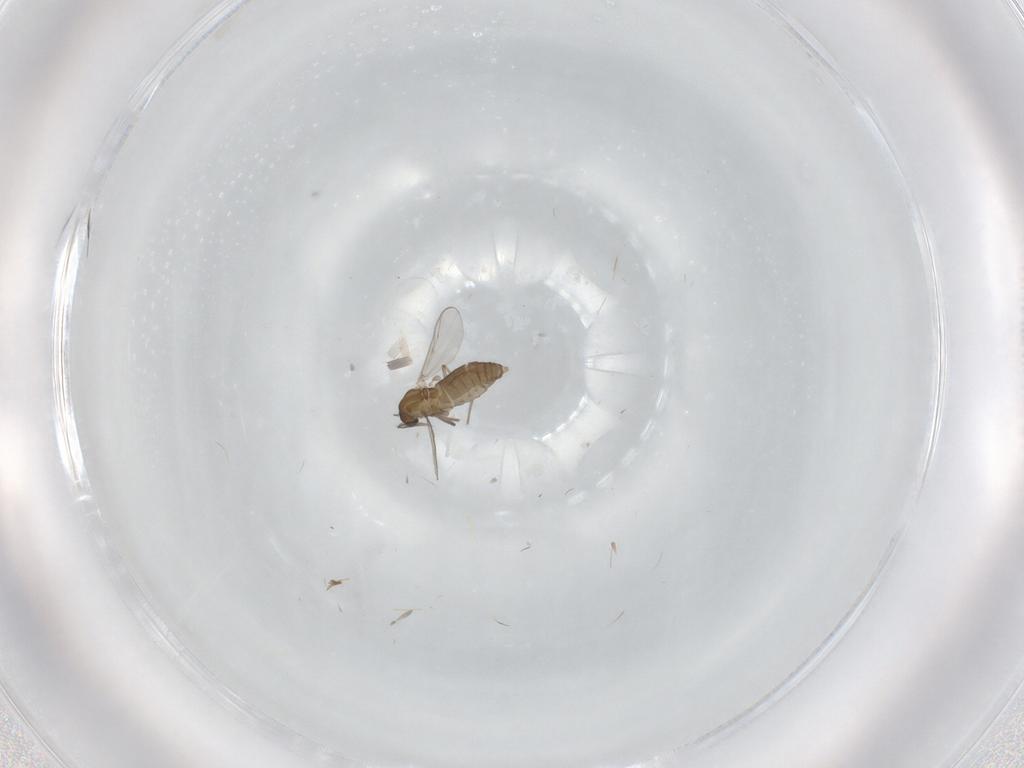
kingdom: Animalia
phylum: Arthropoda
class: Insecta
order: Diptera
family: Chironomidae
